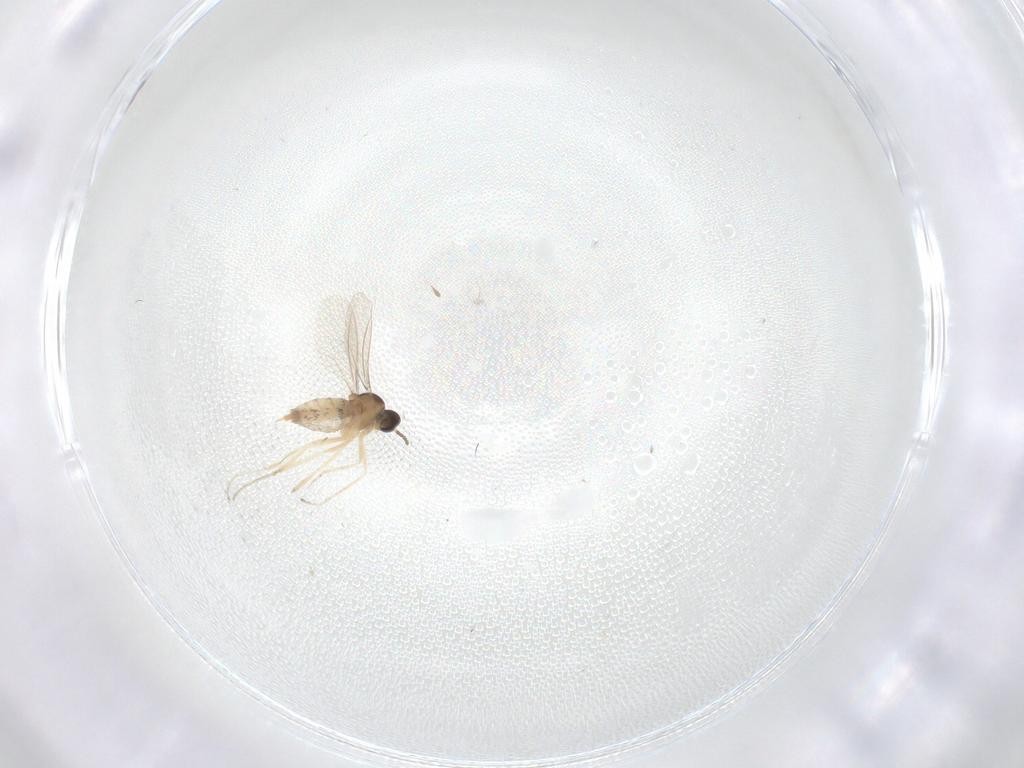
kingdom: Animalia
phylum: Arthropoda
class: Insecta
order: Diptera
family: Cecidomyiidae
